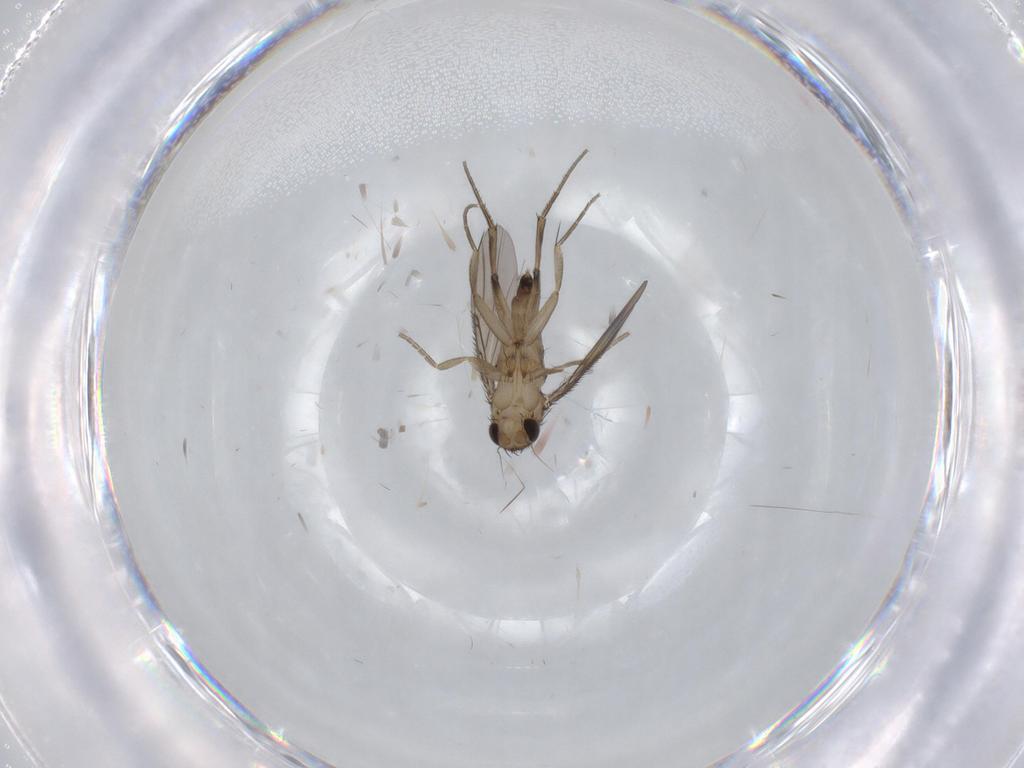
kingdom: Animalia
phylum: Arthropoda
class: Insecta
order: Diptera
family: Phoridae
